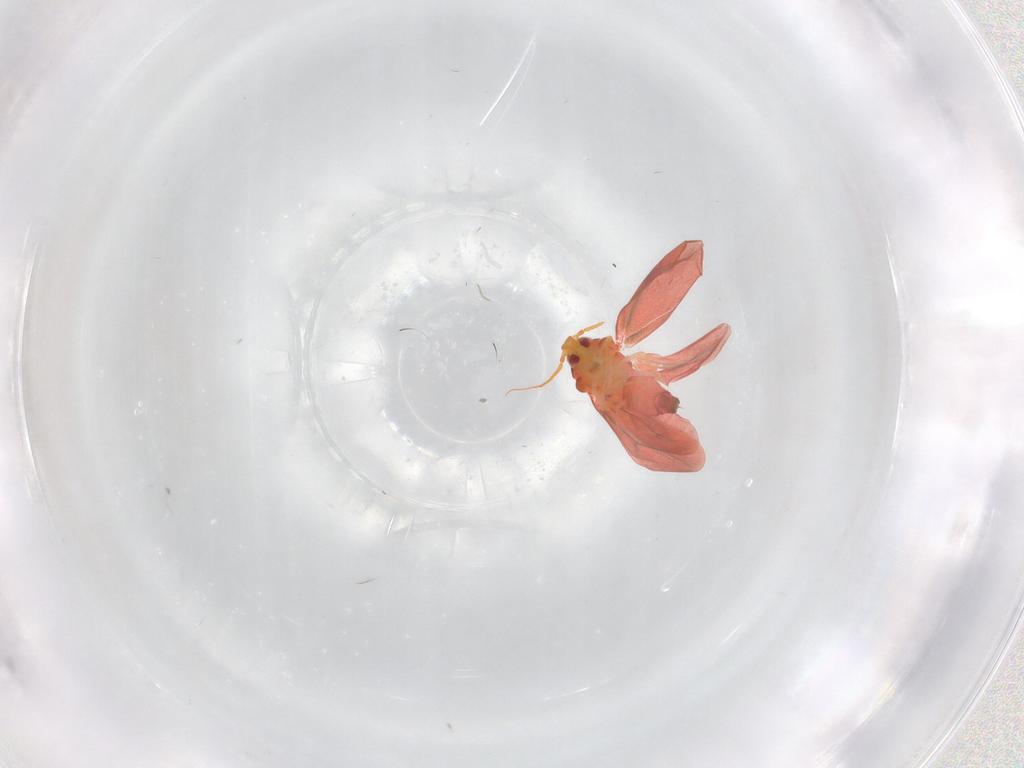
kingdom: Animalia
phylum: Arthropoda
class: Insecta
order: Hemiptera
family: Aleyrodidae
